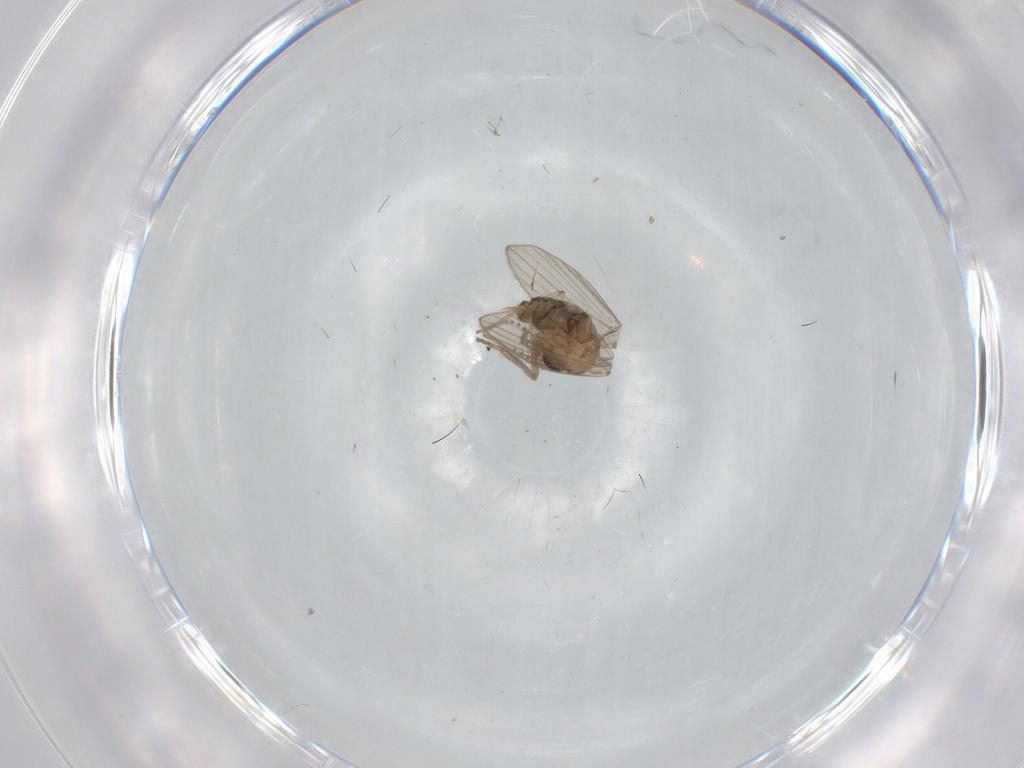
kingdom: Animalia
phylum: Arthropoda
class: Insecta
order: Diptera
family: Psychodidae
